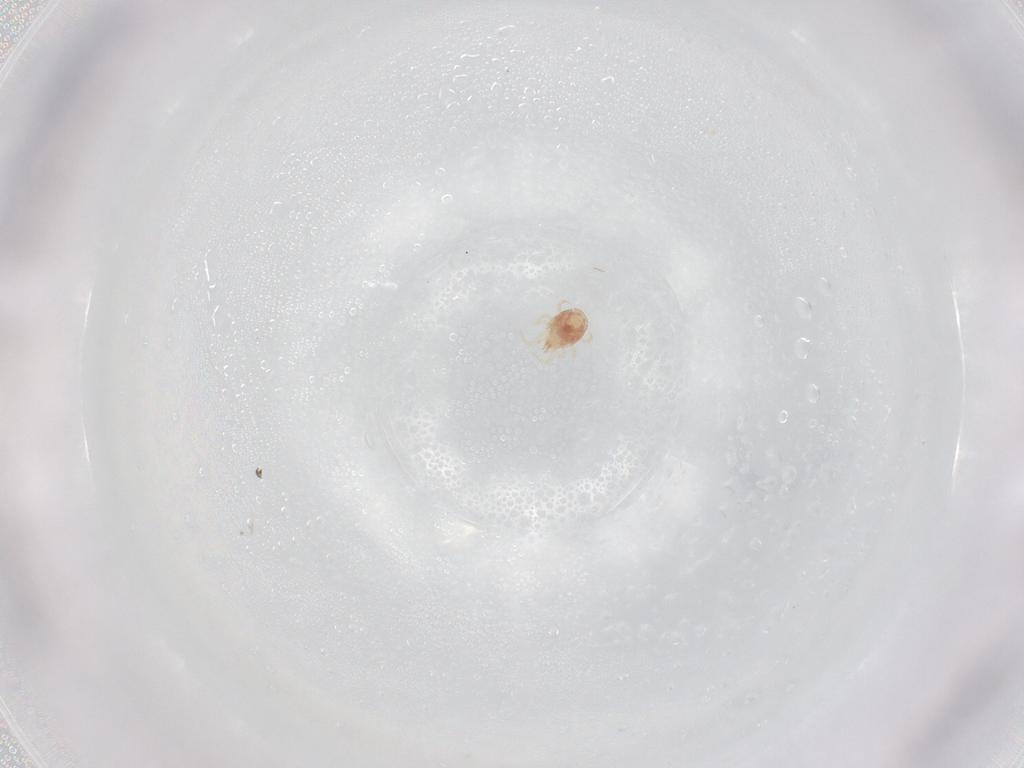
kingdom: Animalia
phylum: Arthropoda
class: Arachnida
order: Mesostigmata
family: Phytoseiidae
